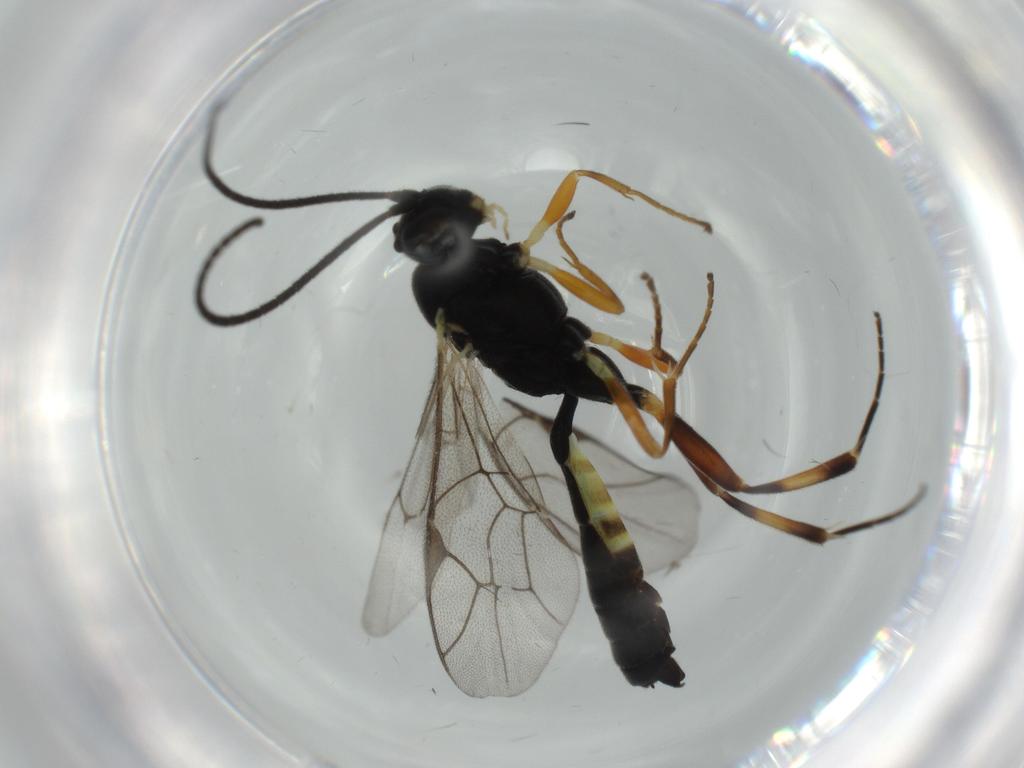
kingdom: Animalia
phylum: Arthropoda
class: Insecta
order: Hymenoptera
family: Ichneumonidae
